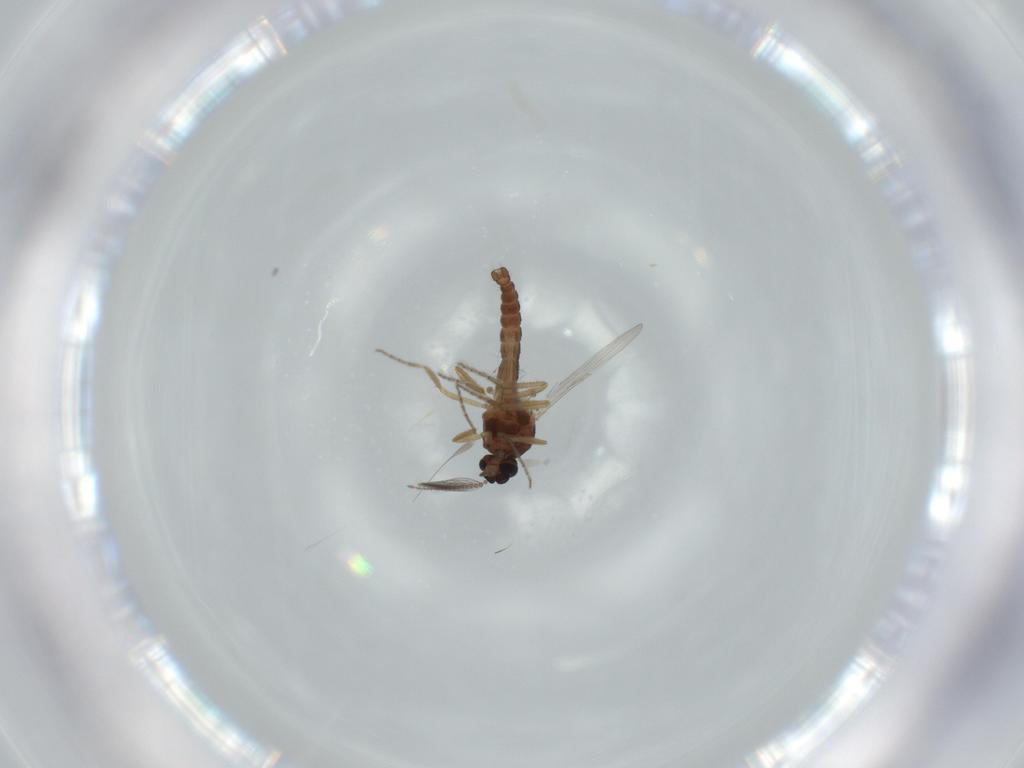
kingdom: Animalia
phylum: Arthropoda
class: Insecta
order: Diptera
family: Ceratopogonidae
